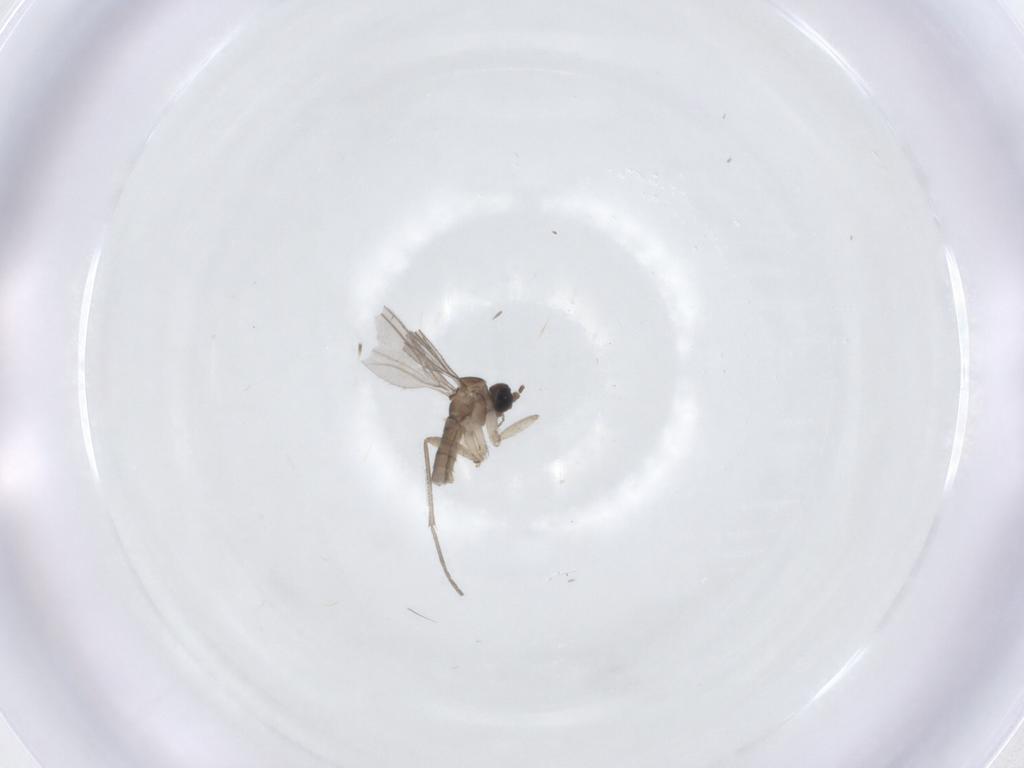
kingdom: Animalia
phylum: Arthropoda
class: Insecta
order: Diptera
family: Sciaridae
